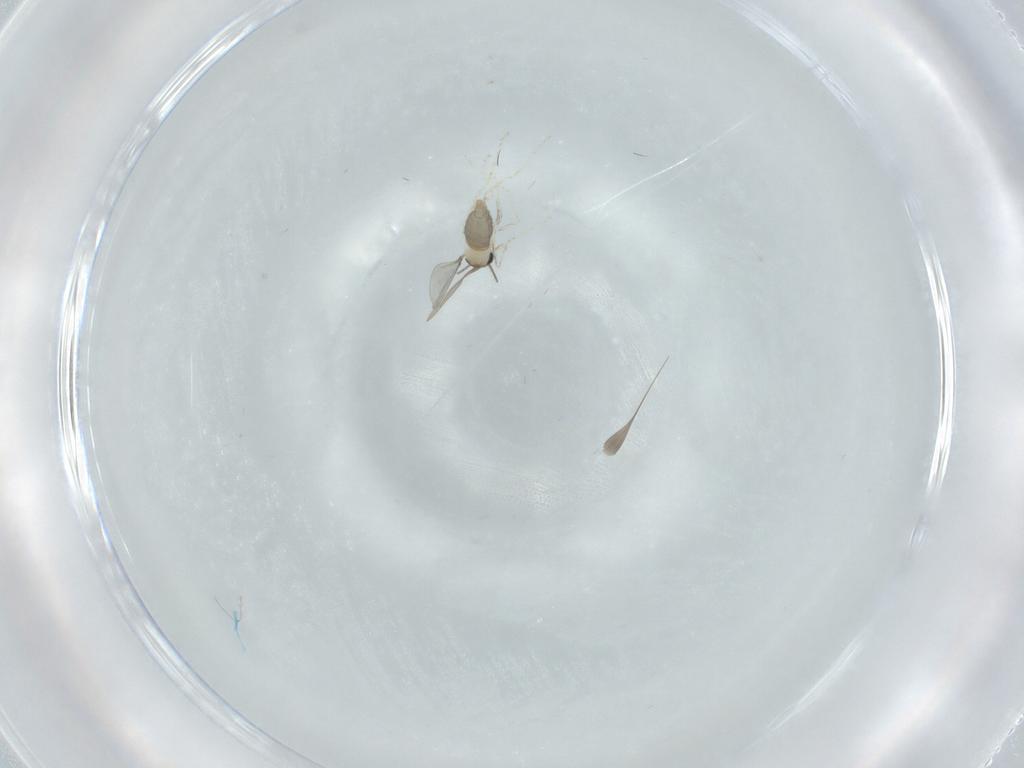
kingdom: Animalia
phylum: Arthropoda
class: Insecta
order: Diptera
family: Cecidomyiidae
